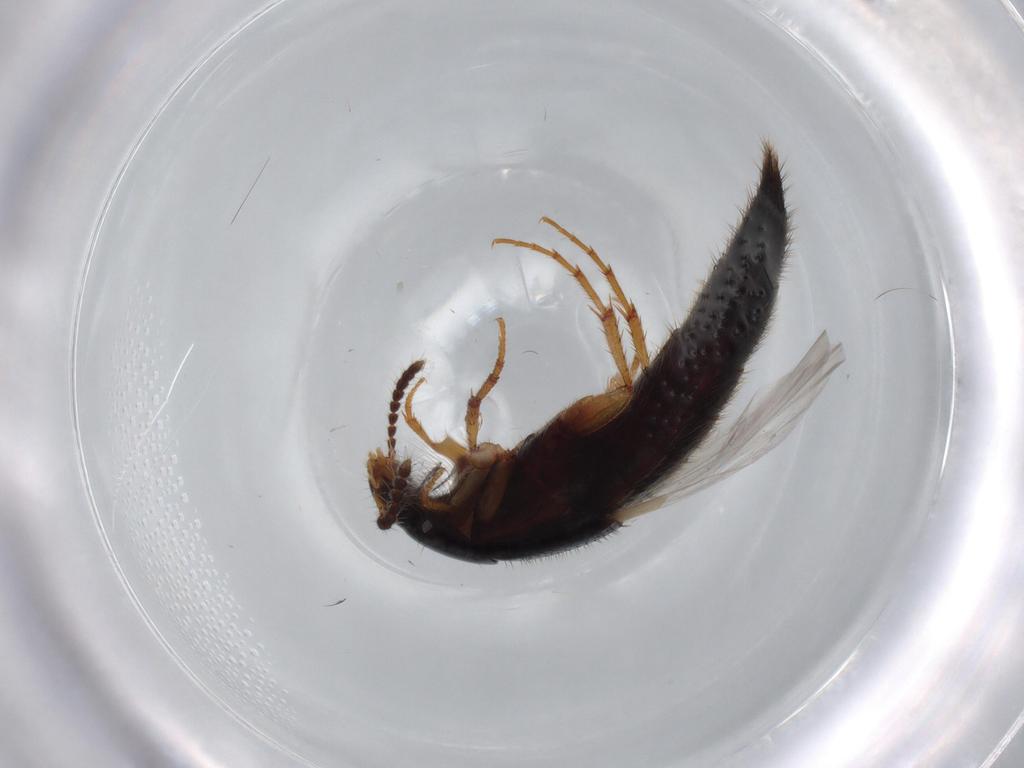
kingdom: Animalia
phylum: Arthropoda
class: Insecta
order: Coleoptera
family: Staphylinidae
